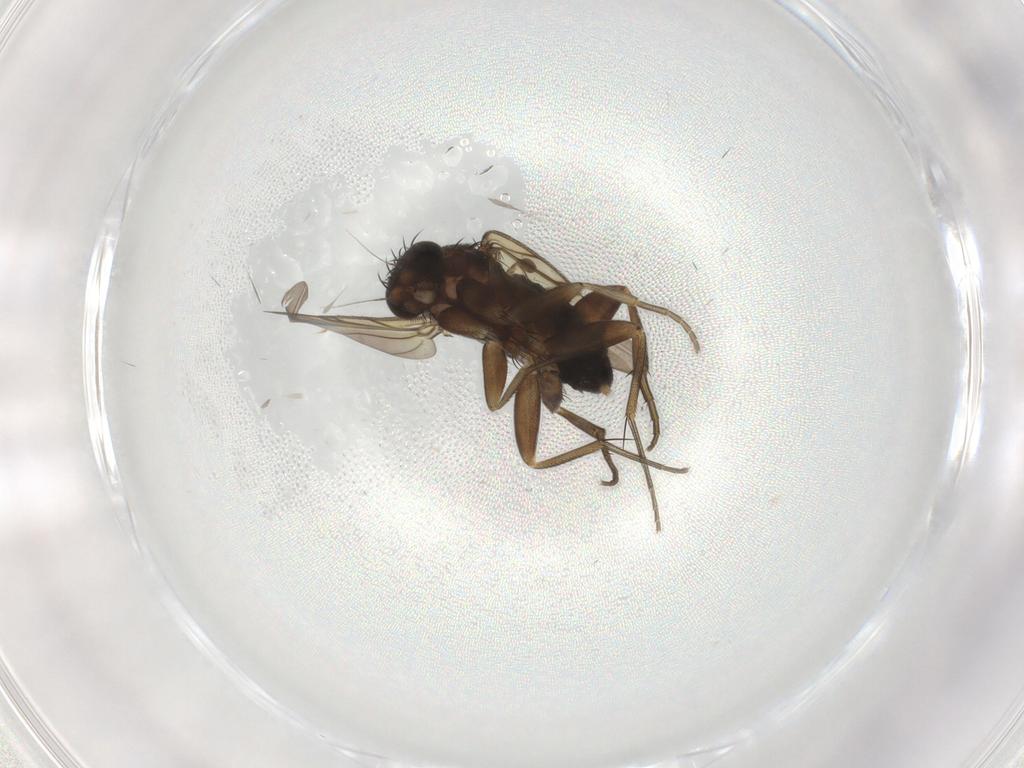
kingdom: Animalia
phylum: Arthropoda
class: Insecta
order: Diptera
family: Phoridae
